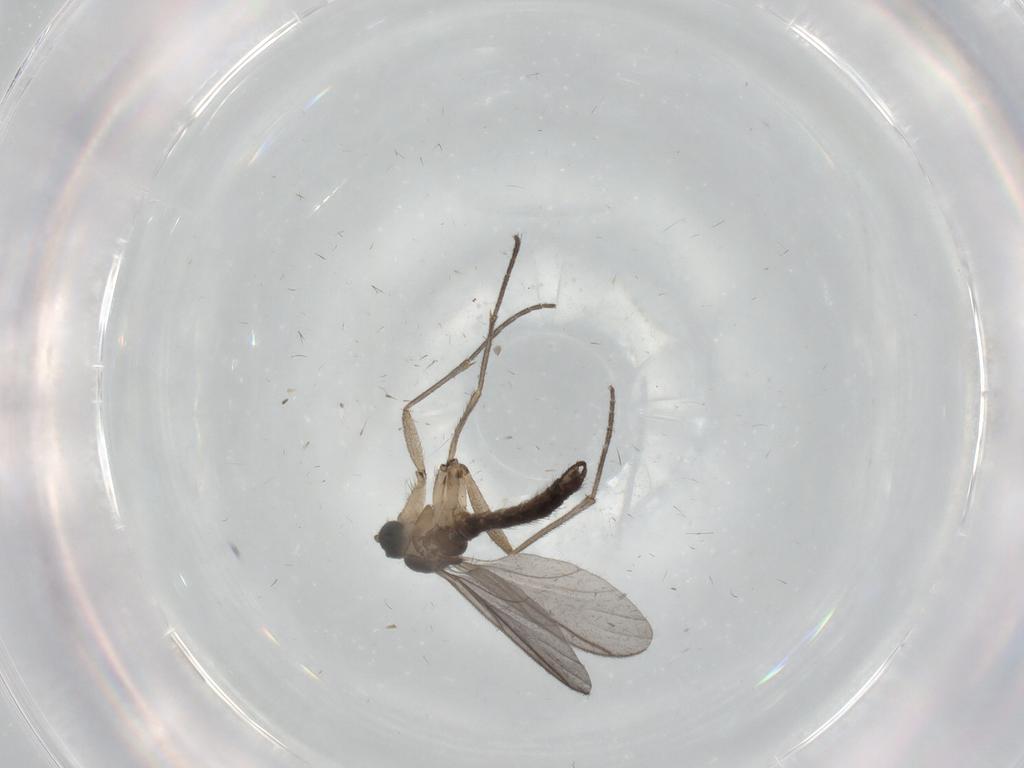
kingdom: Animalia
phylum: Arthropoda
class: Insecta
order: Diptera
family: Sciaridae
